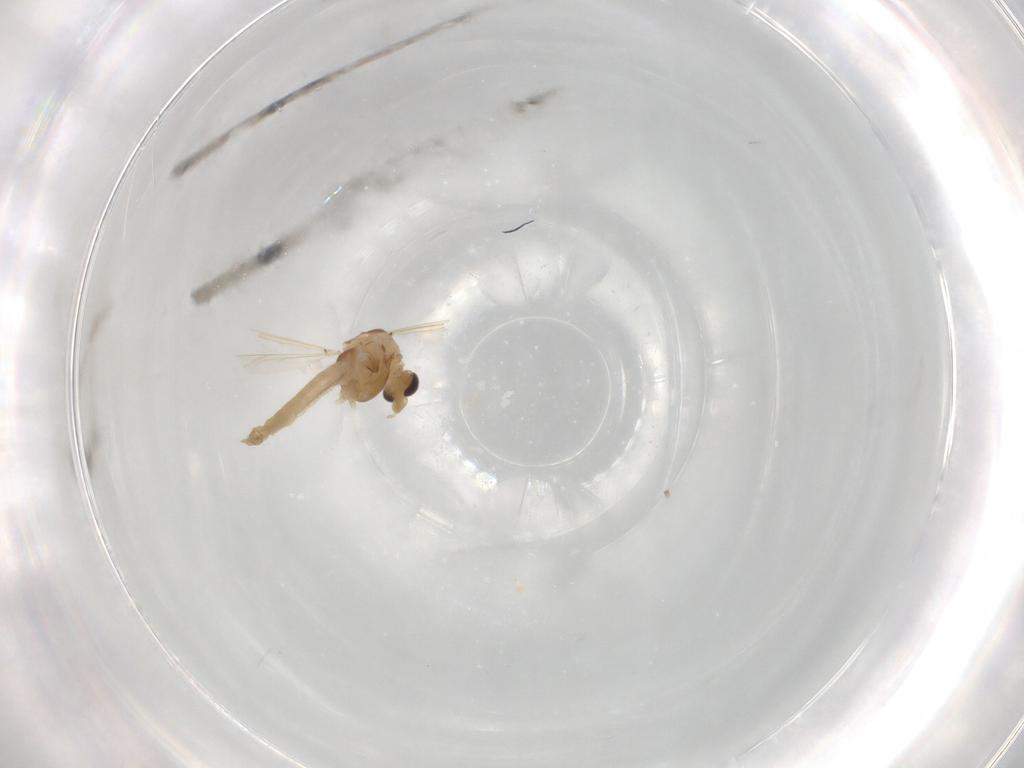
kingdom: Animalia
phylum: Arthropoda
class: Insecta
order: Diptera
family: Chironomidae
